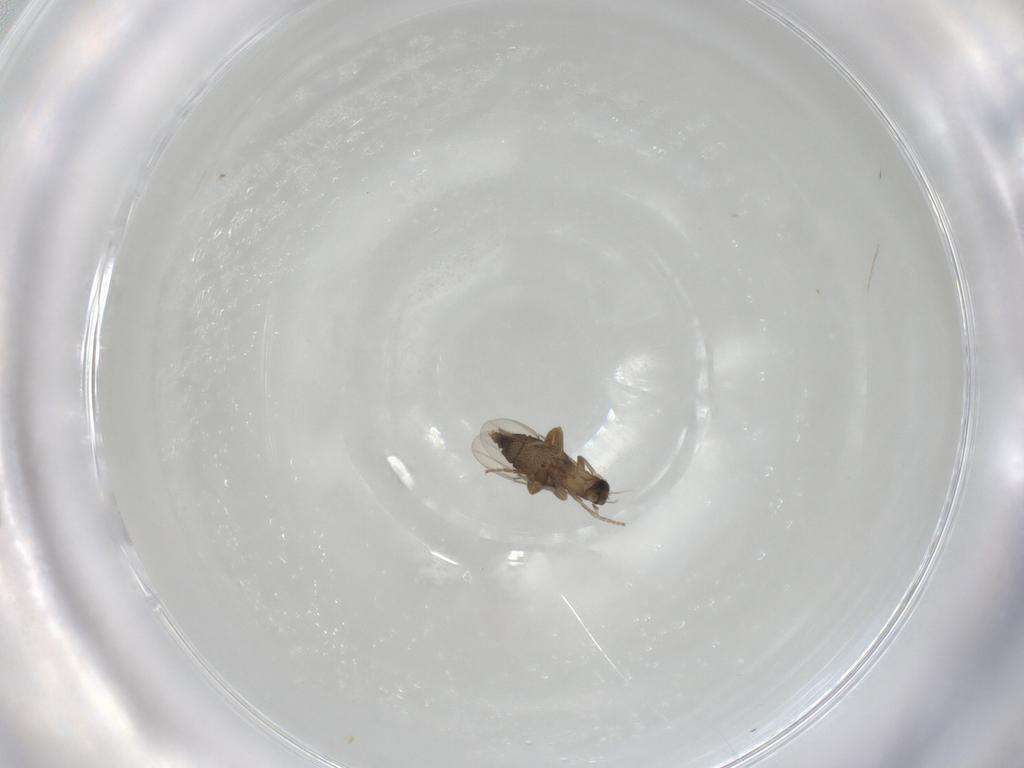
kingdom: Animalia
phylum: Arthropoda
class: Insecta
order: Diptera
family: Phoridae
